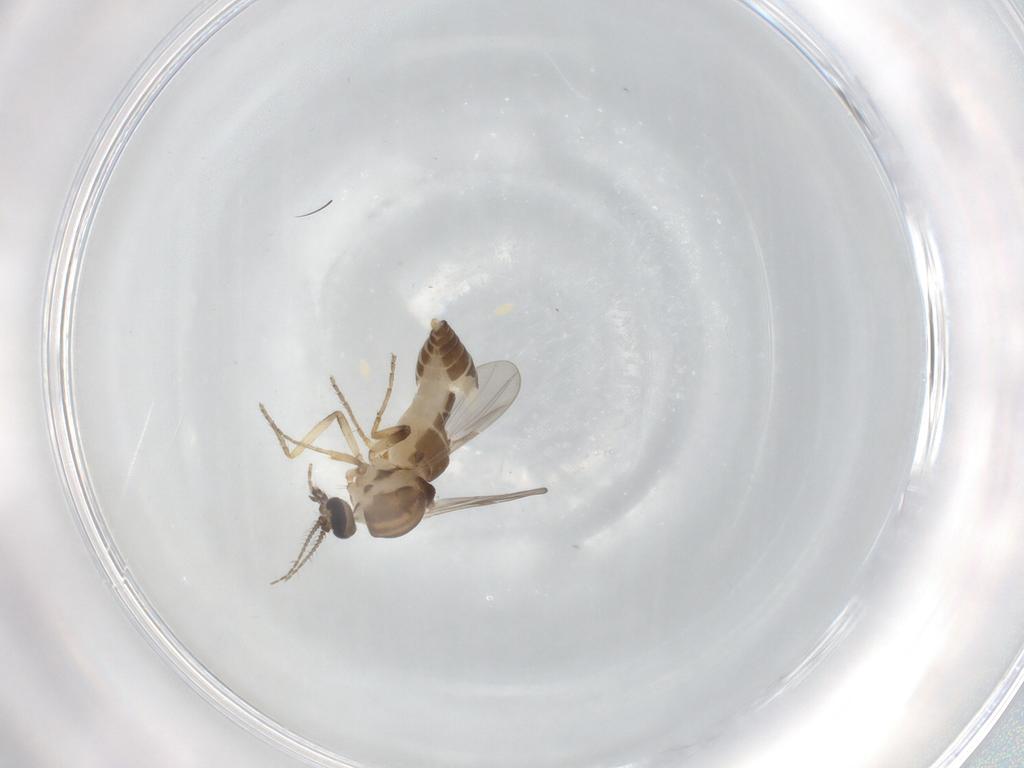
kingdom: Animalia
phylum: Arthropoda
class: Insecta
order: Diptera
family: Ceratopogonidae
